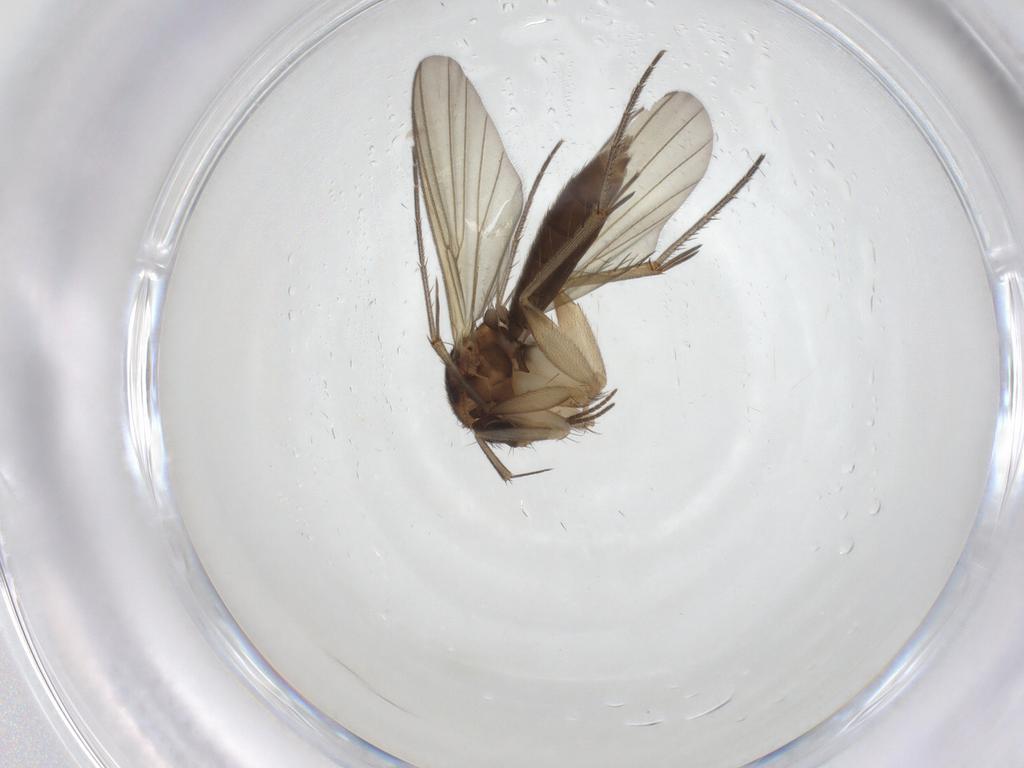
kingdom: Animalia
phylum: Arthropoda
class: Insecta
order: Diptera
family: Mycetophilidae
